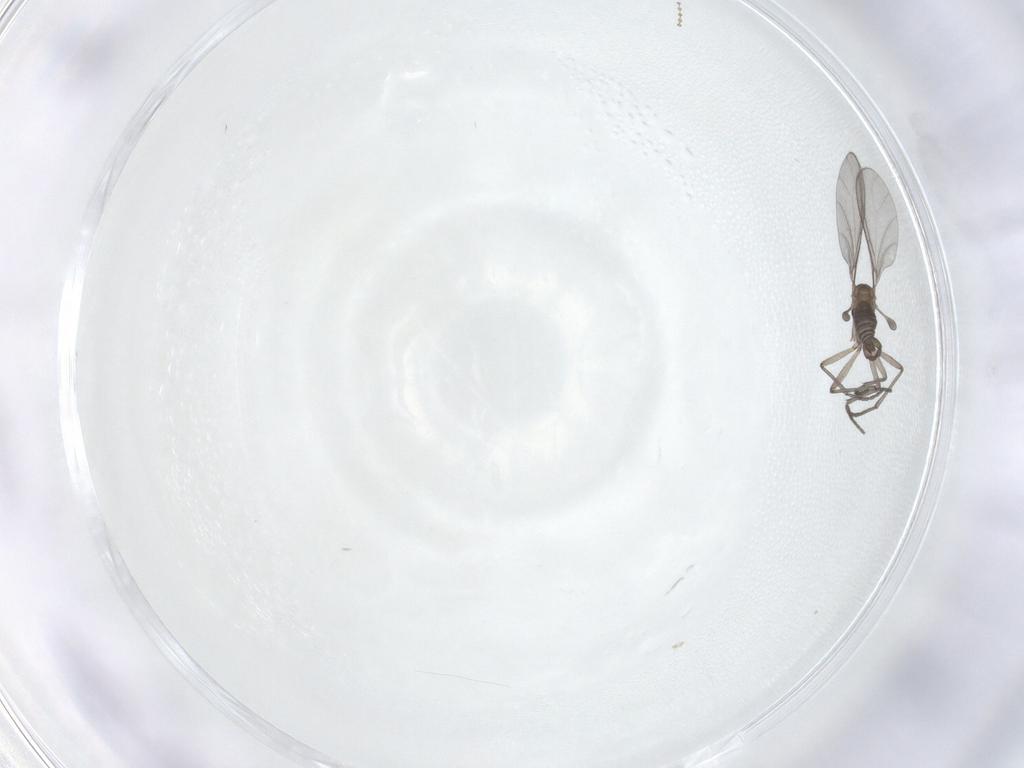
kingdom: Animalia
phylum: Arthropoda
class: Insecta
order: Diptera
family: Sciaridae
